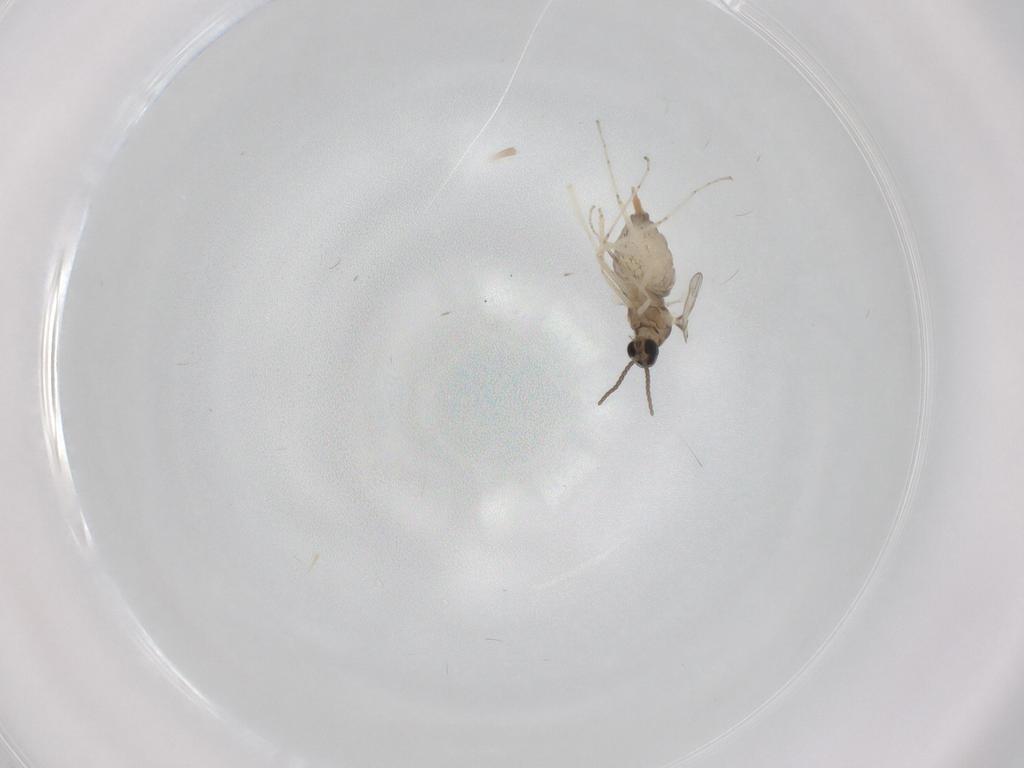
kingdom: Animalia
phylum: Arthropoda
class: Insecta
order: Diptera
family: Cecidomyiidae
